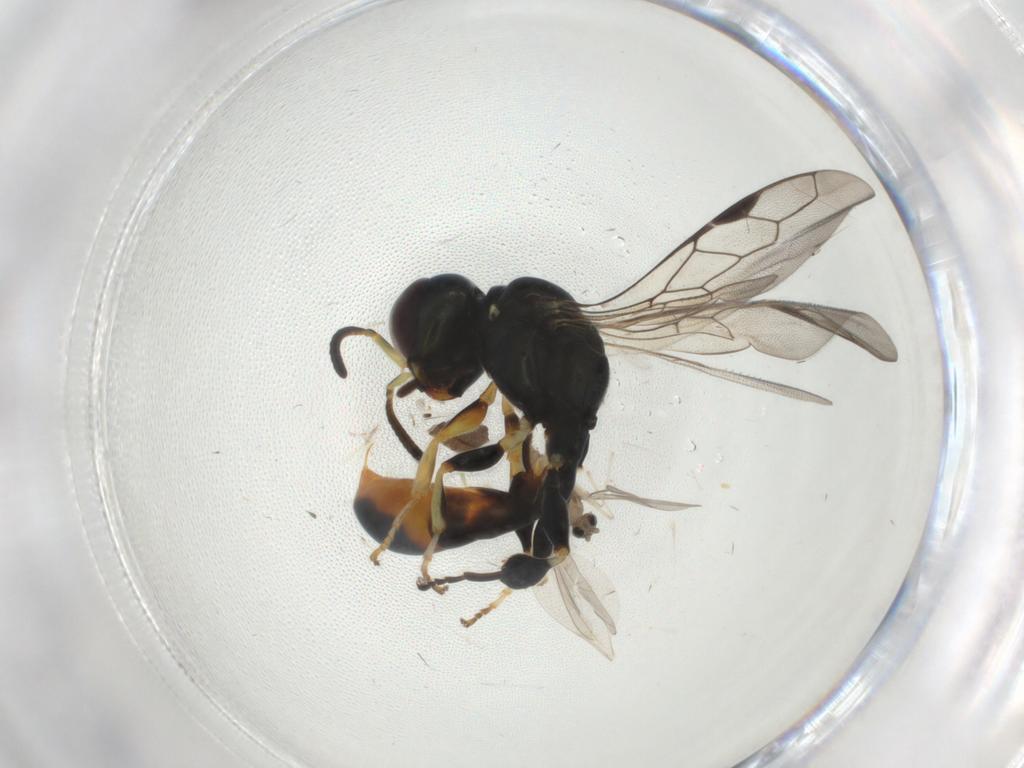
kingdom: Animalia
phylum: Arthropoda
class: Insecta
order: Diptera
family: Cecidomyiidae
